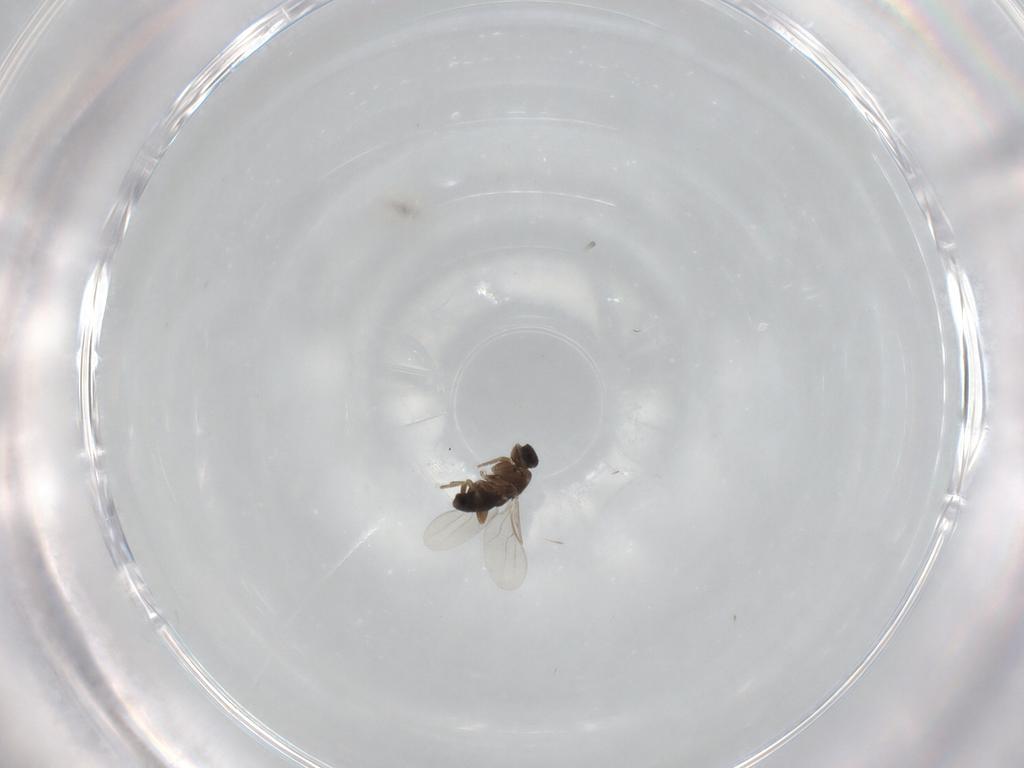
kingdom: Animalia
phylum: Arthropoda
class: Insecta
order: Diptera
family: Phoridae
